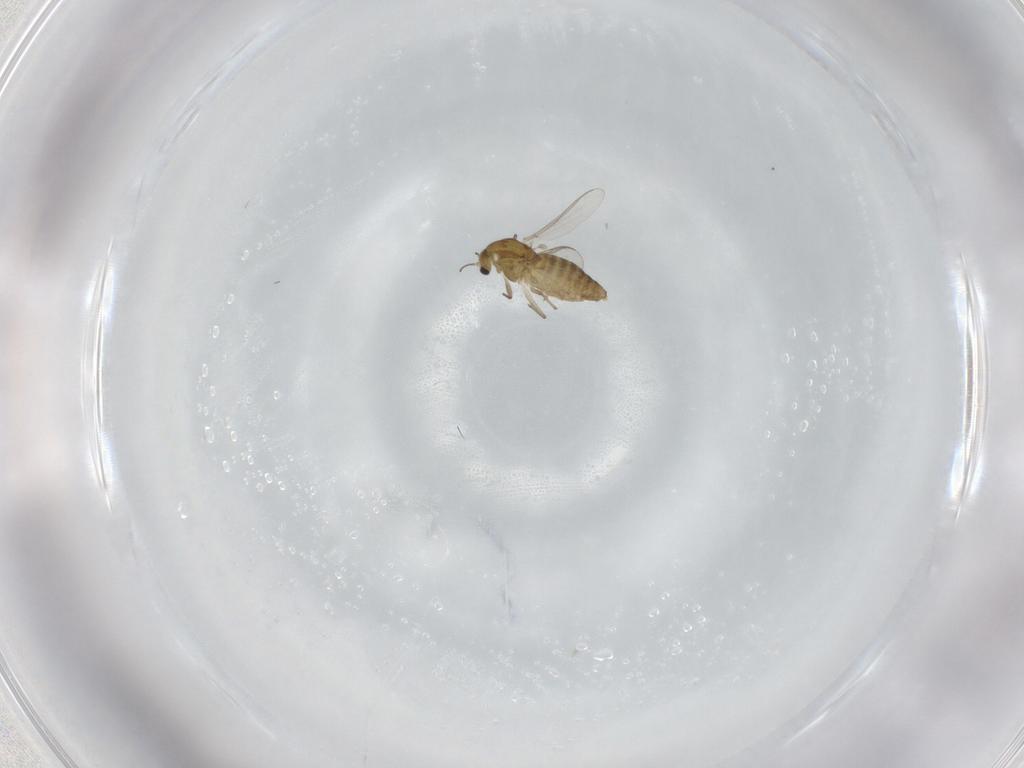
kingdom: Animalia
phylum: Arthropoda
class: Insecta
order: Diptera
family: Chironomidae
